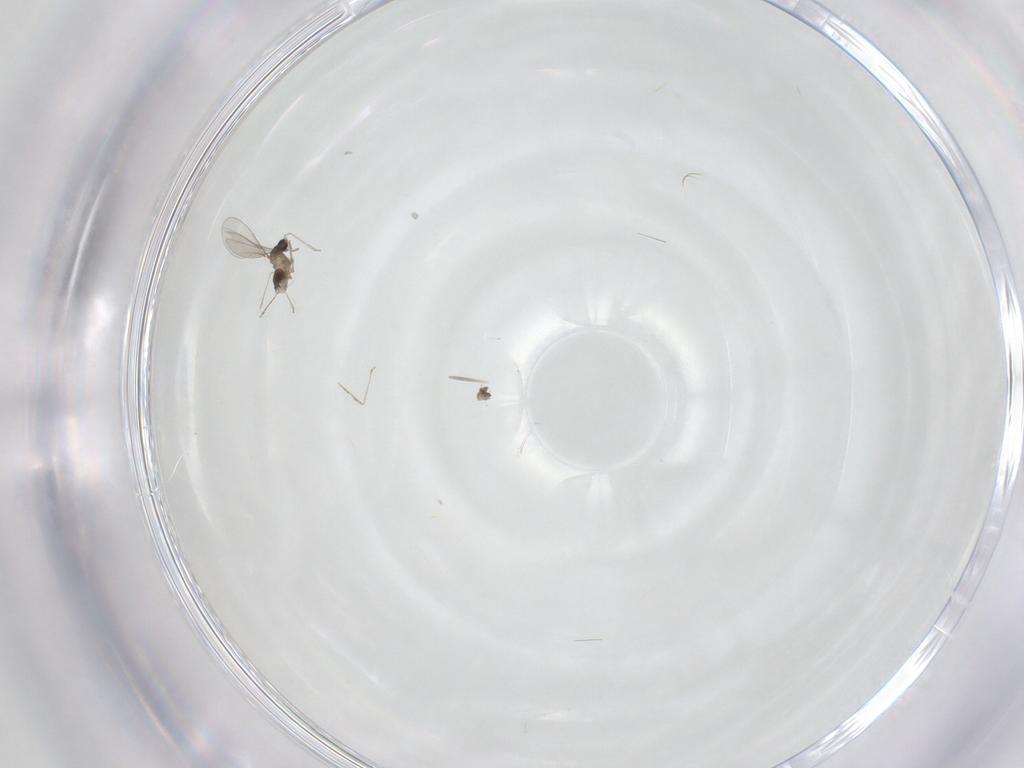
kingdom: Animalia
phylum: Arthropoda
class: Insecta
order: Diptera
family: Cecidomyiidae
